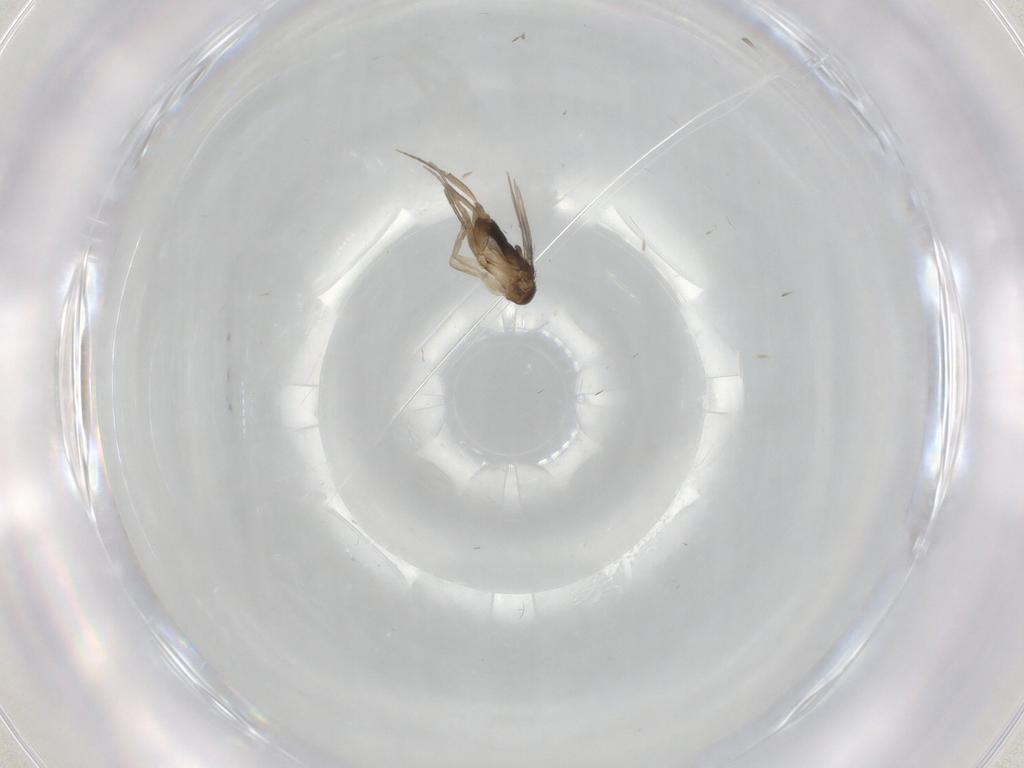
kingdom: Animalia
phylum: Arthropoda
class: Insecta
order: Diptera
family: Phoridae
